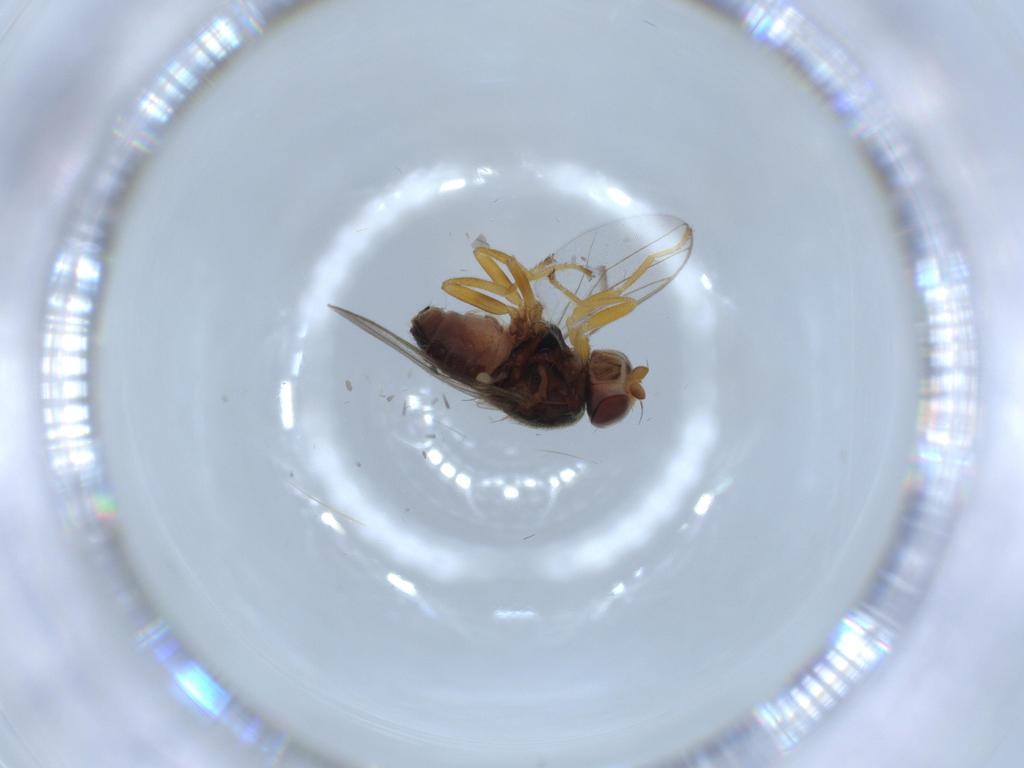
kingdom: Animalia
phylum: Arthropoda
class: Insecta
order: Diptera
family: Chloropidae
